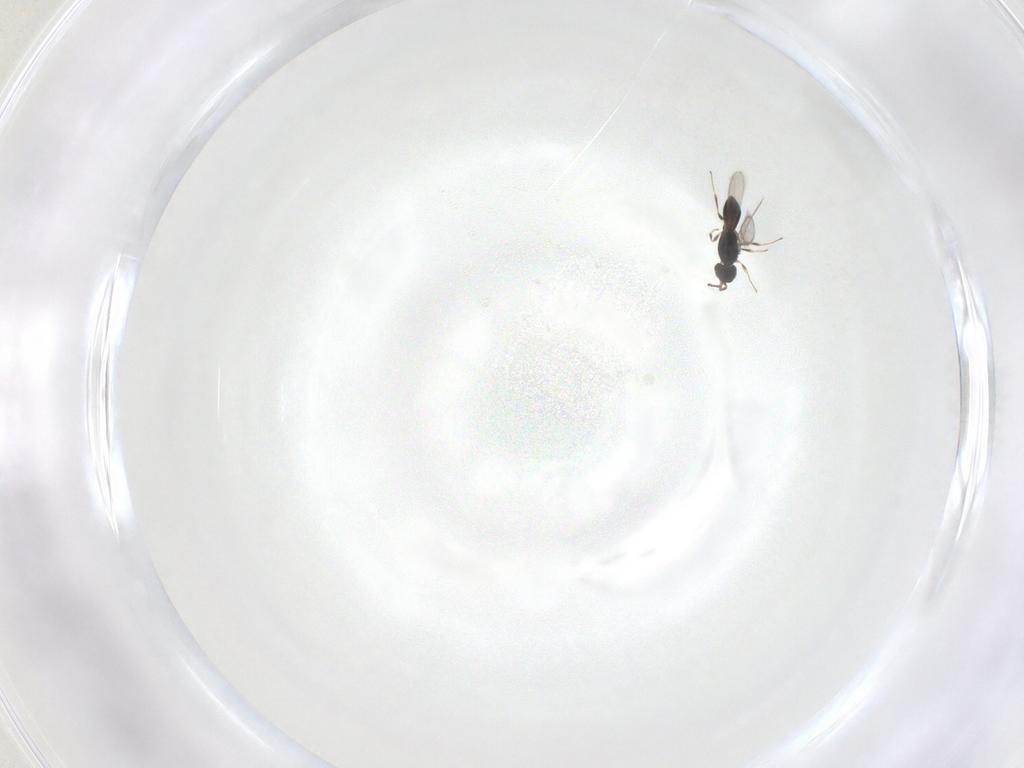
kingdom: Animalia
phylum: Arthropoda
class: Insecta
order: Hymenoptera
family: Scelionidae
